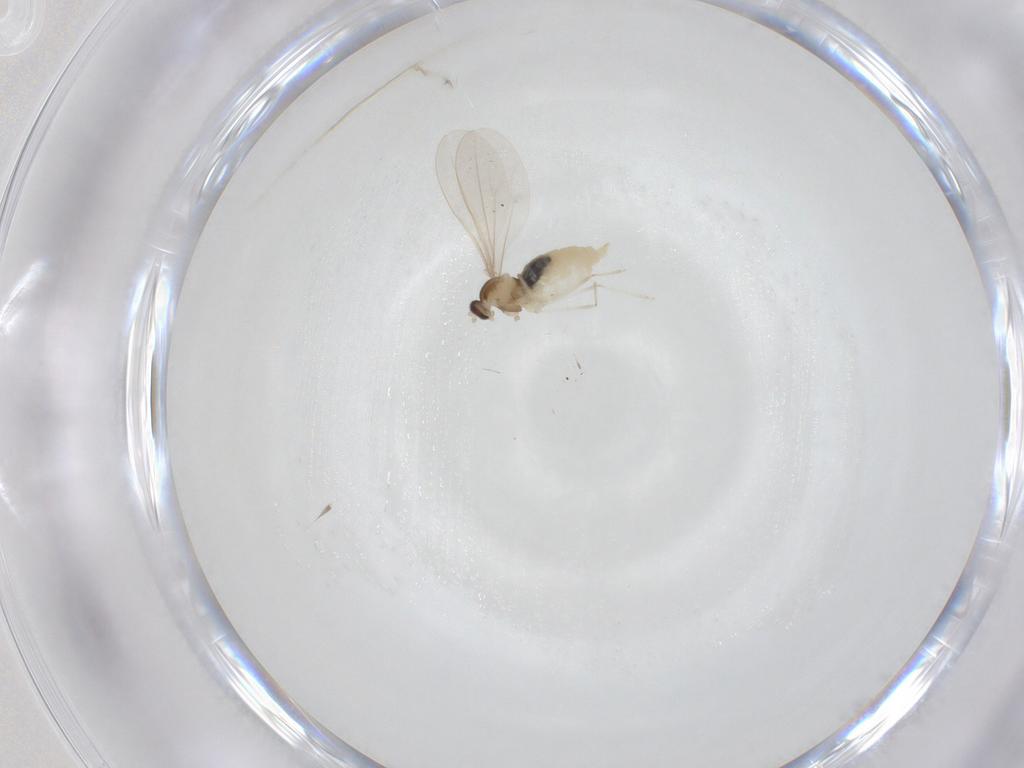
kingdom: Animalia
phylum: Arthropoda
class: Insecta
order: Diptera
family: Cecidomyiidae
